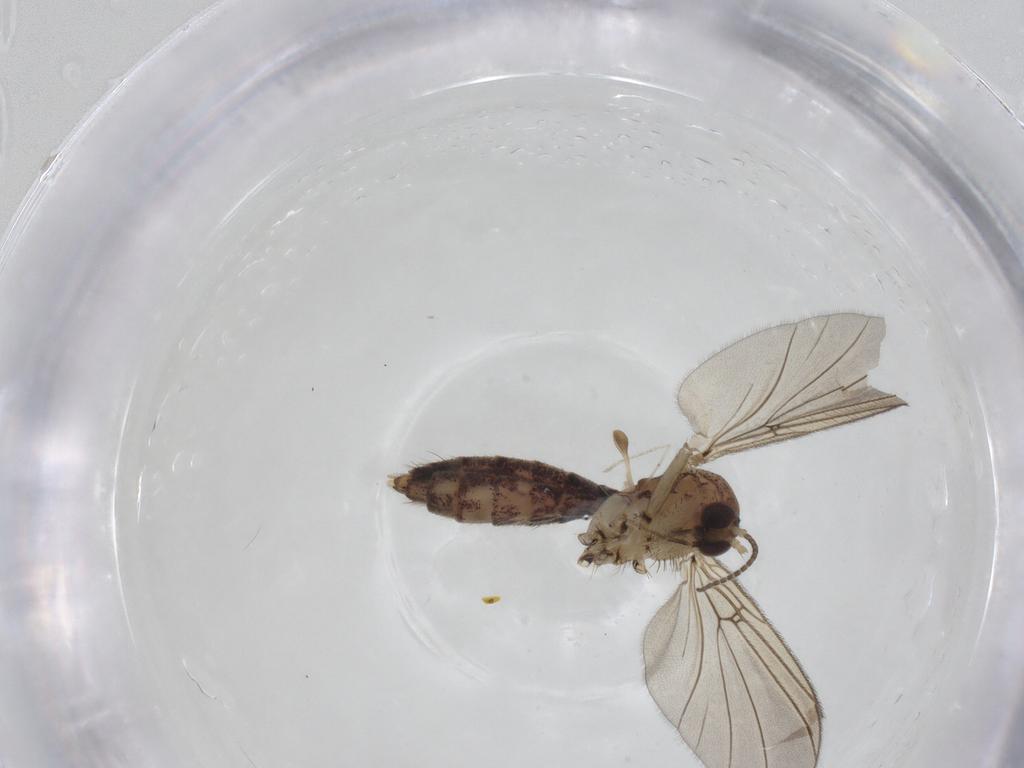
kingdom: Animalia
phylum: Arthropoda
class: Insecta
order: Diptera
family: Mycetophilidae
